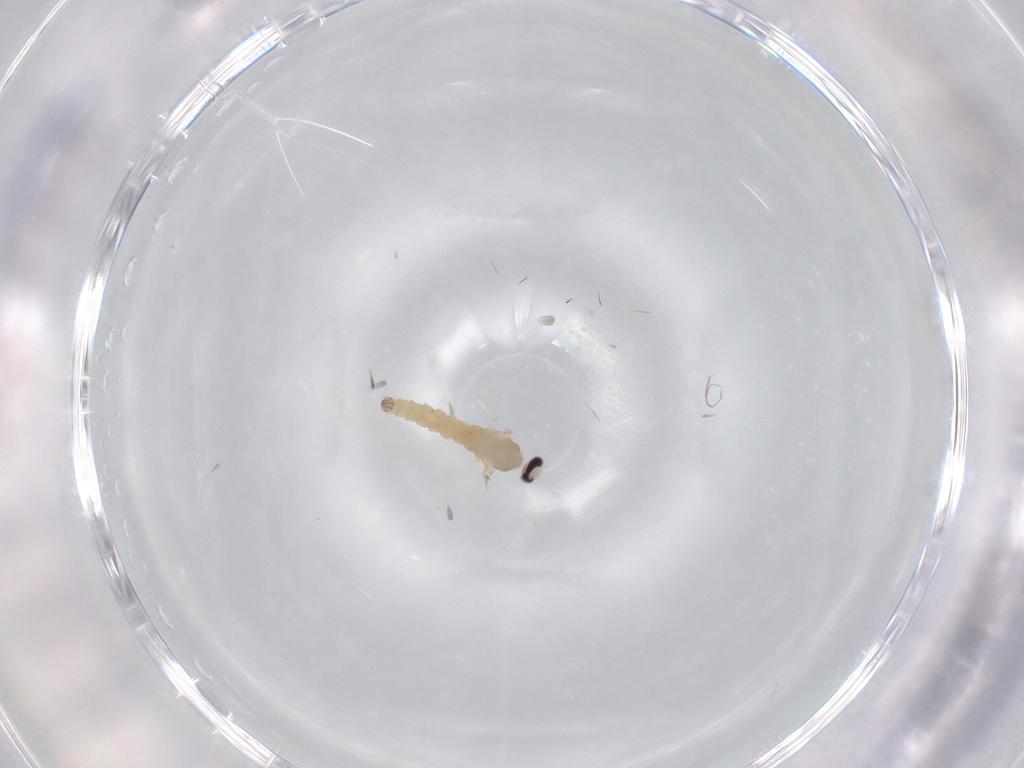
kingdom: Animalia
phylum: Arthropoda
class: Insecta
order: Diptera
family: Cecidomyiidae
